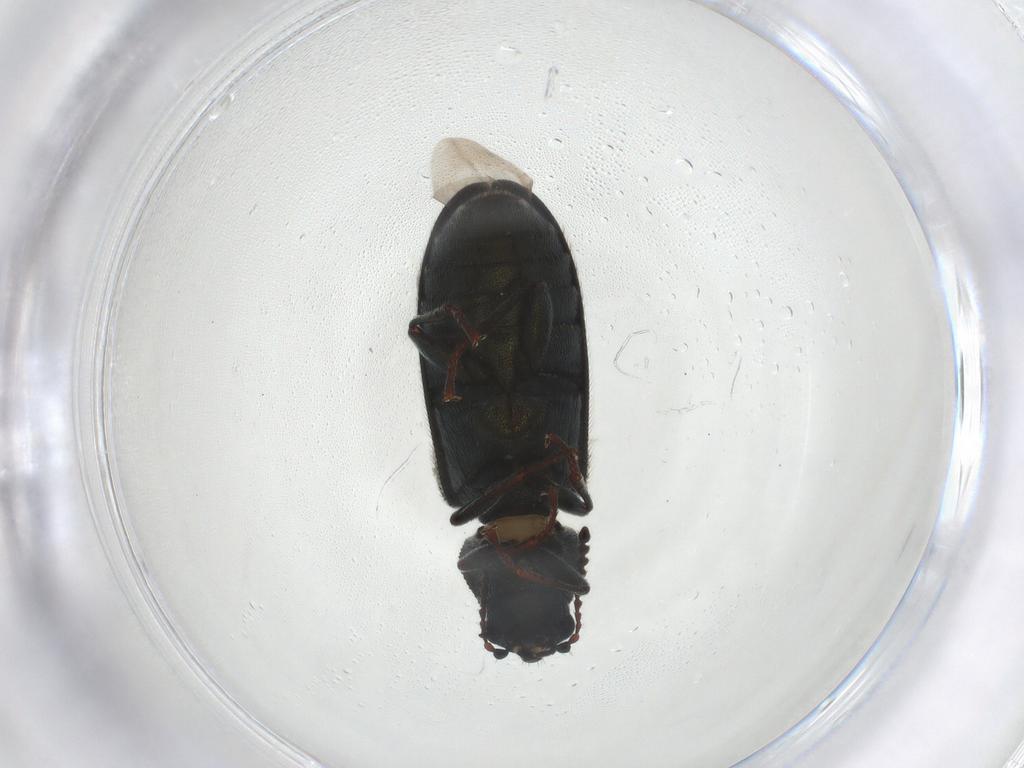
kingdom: Animalia
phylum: Arthropoda
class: Insecta
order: Coleoptera
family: Melyridae
